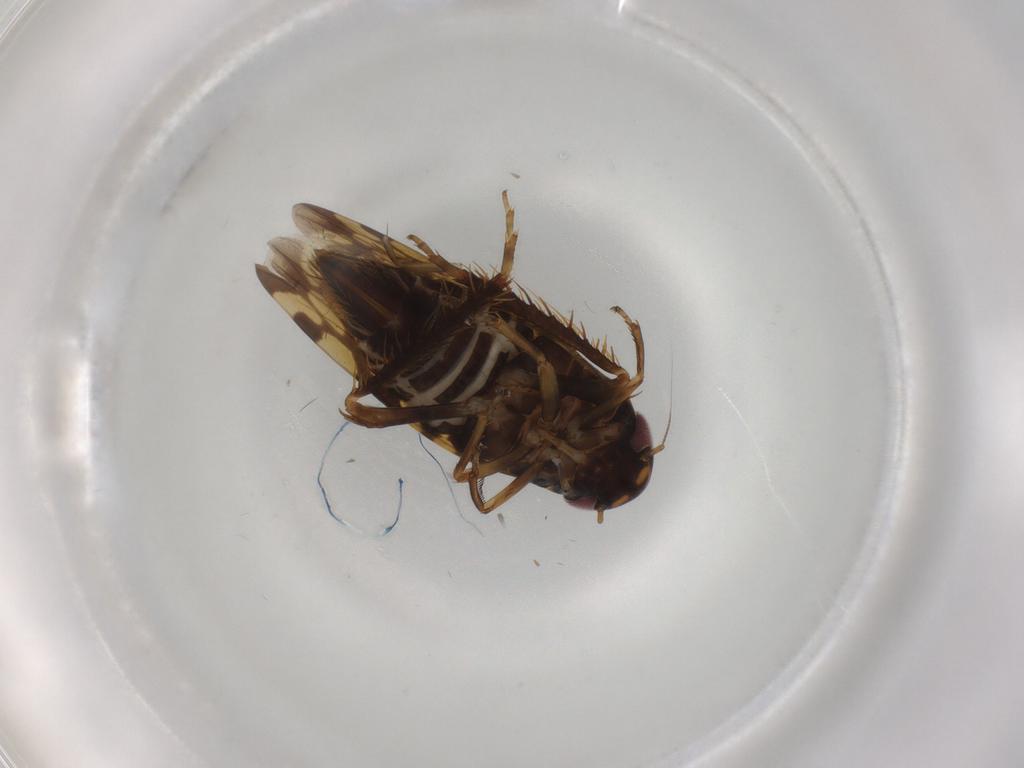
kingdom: Animalia
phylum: Arthropoda
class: Insecta
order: Hemiptera
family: Cicadellidae
